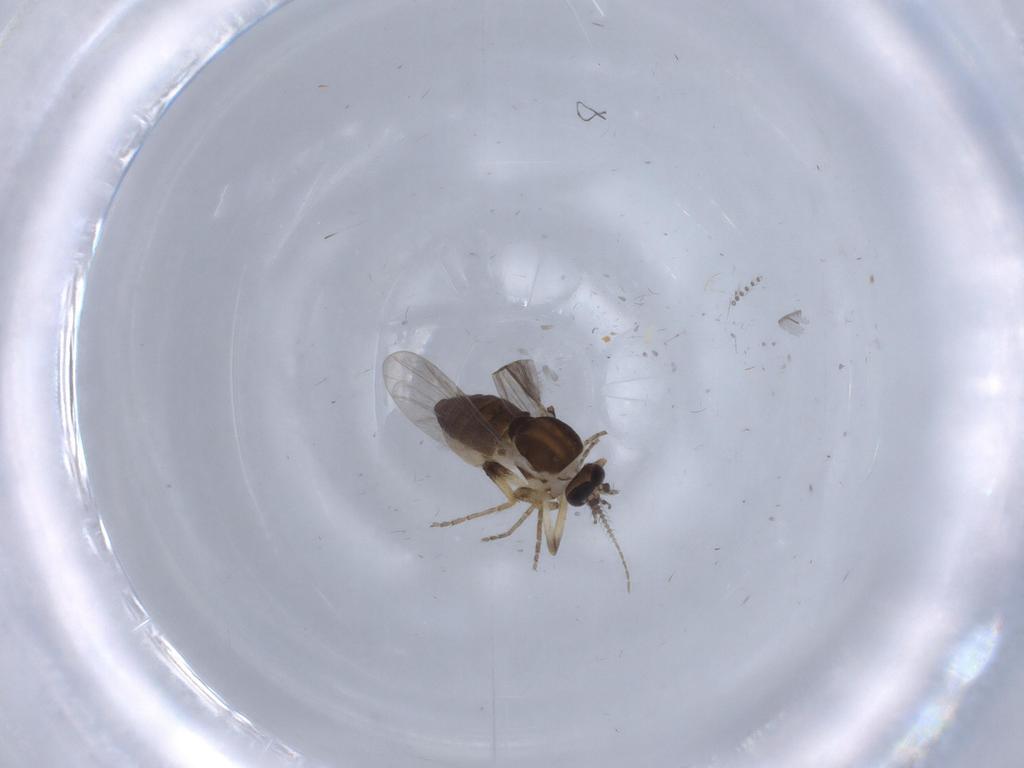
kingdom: Animalia
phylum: Arthropoda
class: Insecta
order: Diptera
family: Ceratopogonidae
